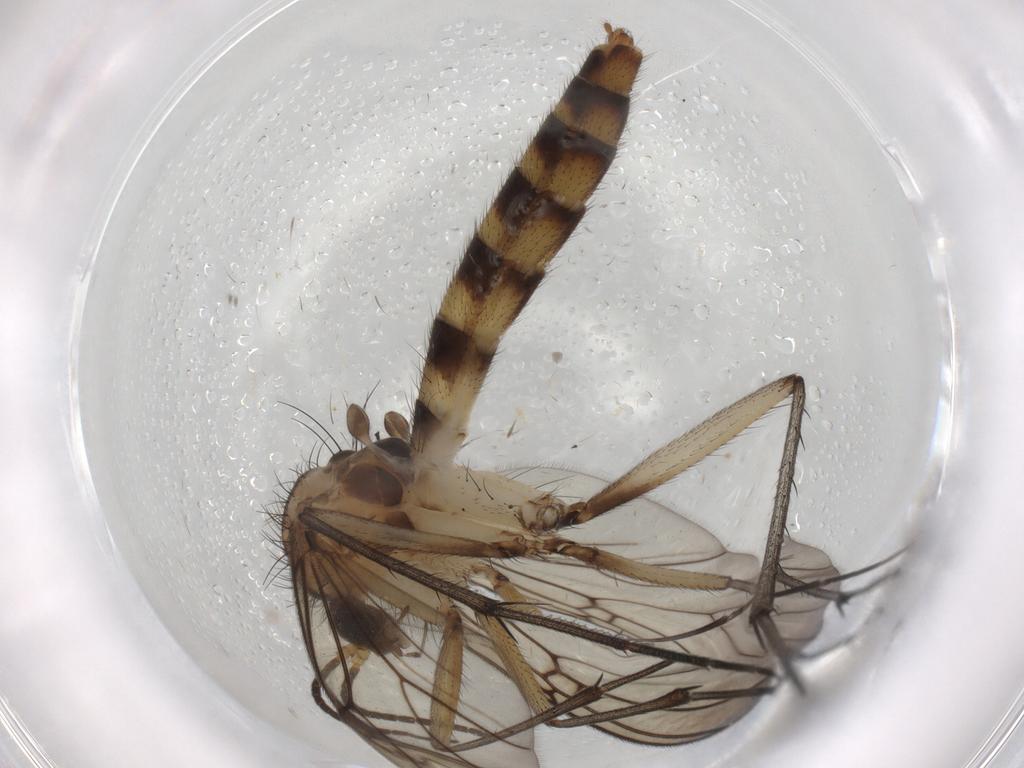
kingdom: Animalia
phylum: Arthropoda
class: Insecta
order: Diptera
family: Mycetophilidae
